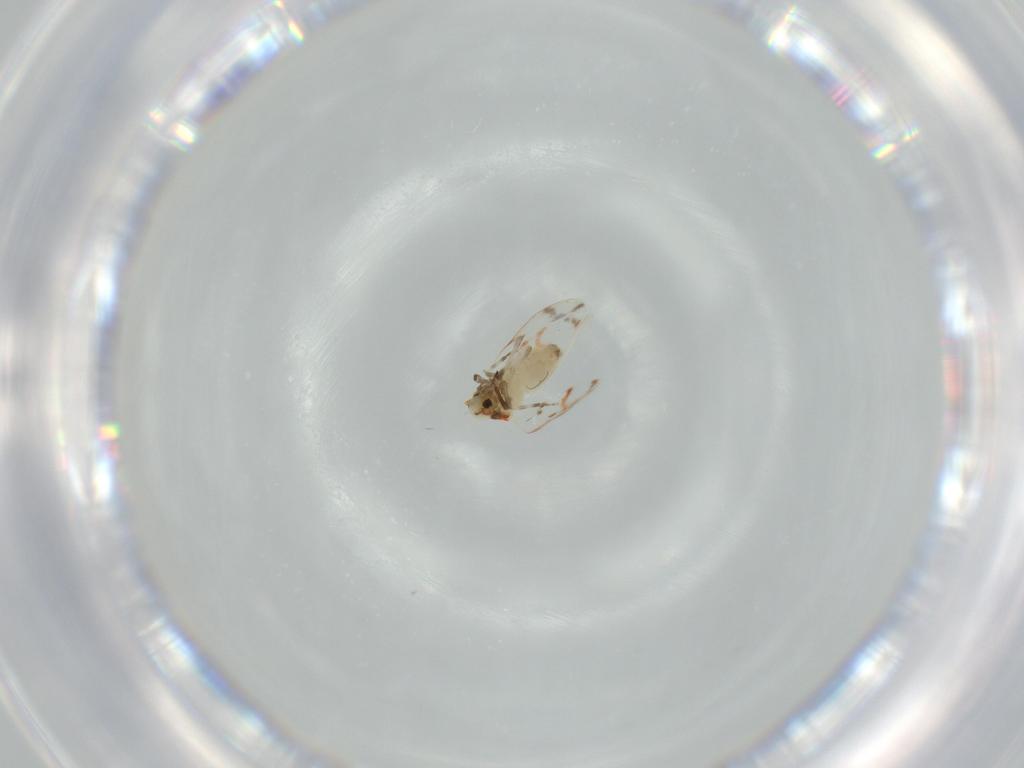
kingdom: Animalia
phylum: Arthropoda
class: Insecta
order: Hemiptera
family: Aleyrodidae
